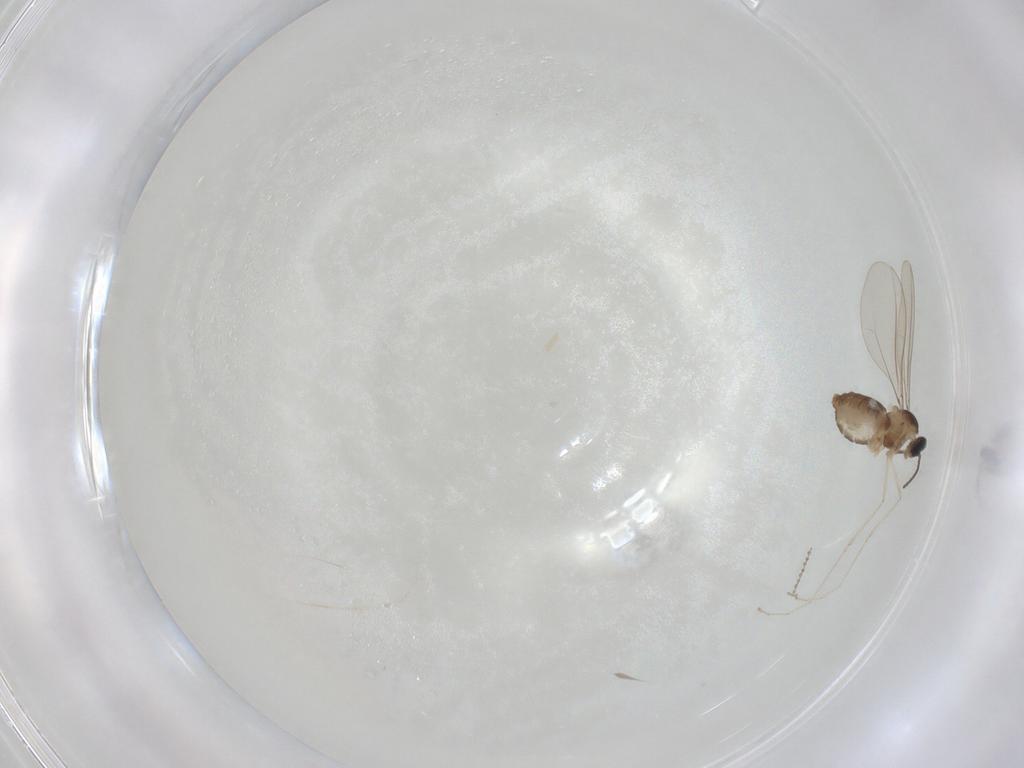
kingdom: Animalia
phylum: Arthropoda
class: Insecta
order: Diptera
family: Cecidomyiidae
